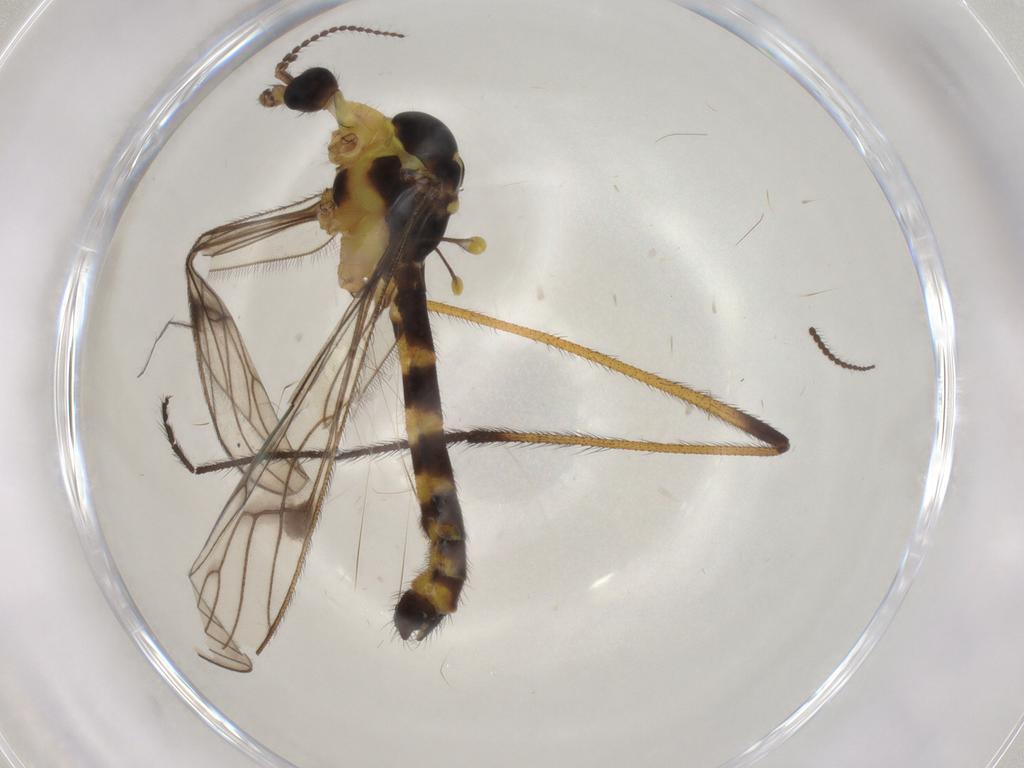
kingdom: Animalia
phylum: Arthropoda
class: Insecta
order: Diptera
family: Limoniidae
